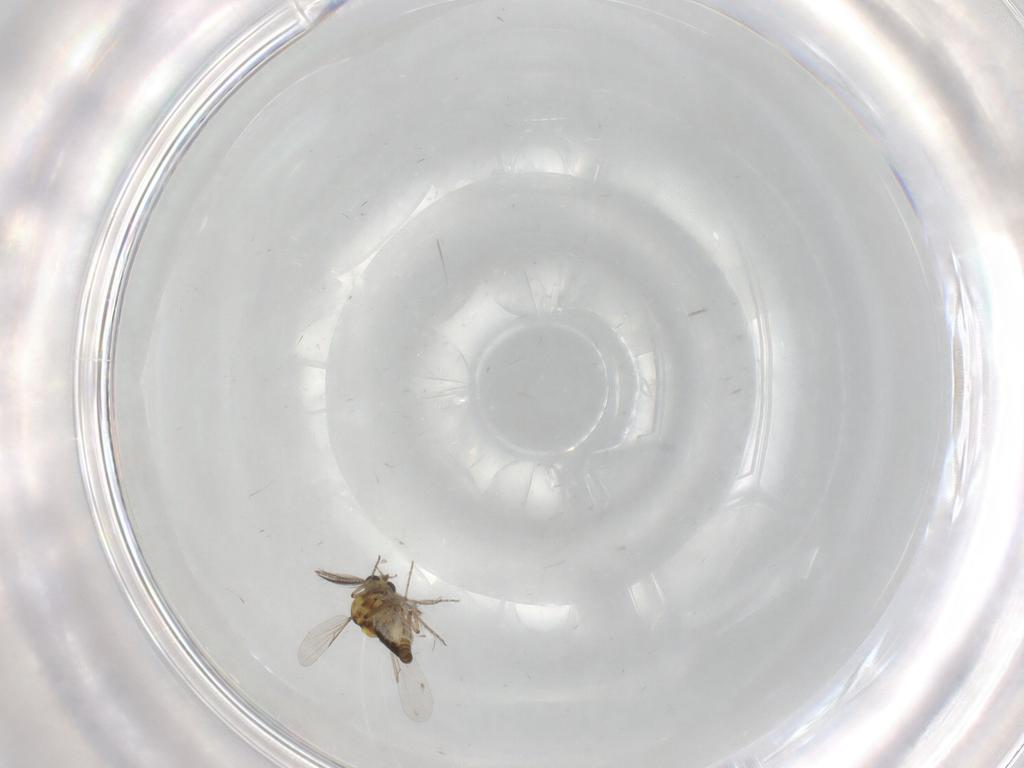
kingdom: Animalia
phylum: Arthropoda
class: Insecta
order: Diptera
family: Ceratopogonidae
